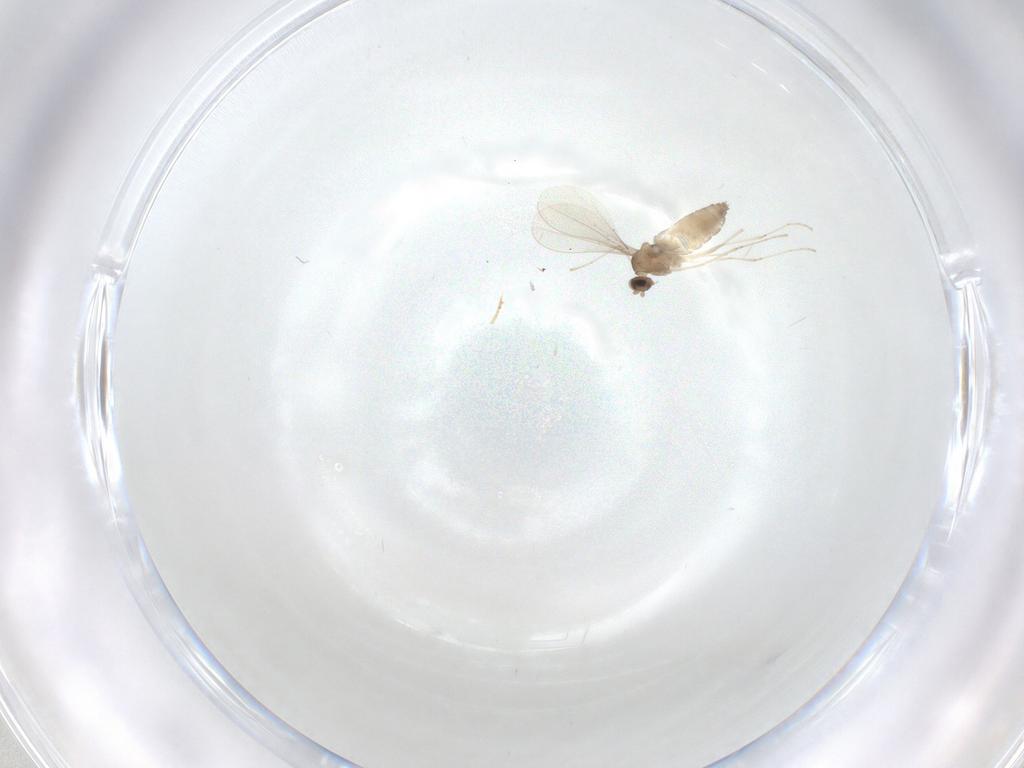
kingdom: Animalia
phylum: Arthropoda
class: Insecta
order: Diptera
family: Cecidomyiidae
